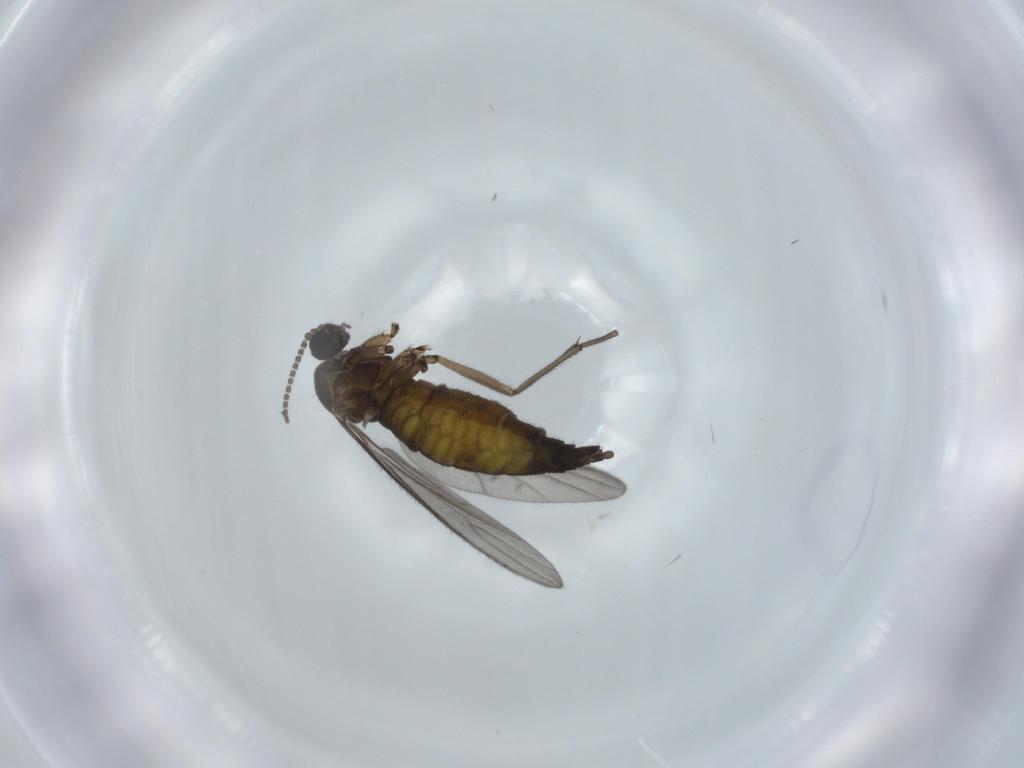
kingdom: Animalia
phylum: Arthropoda
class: Insecta
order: Diptera
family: Sciaridae
